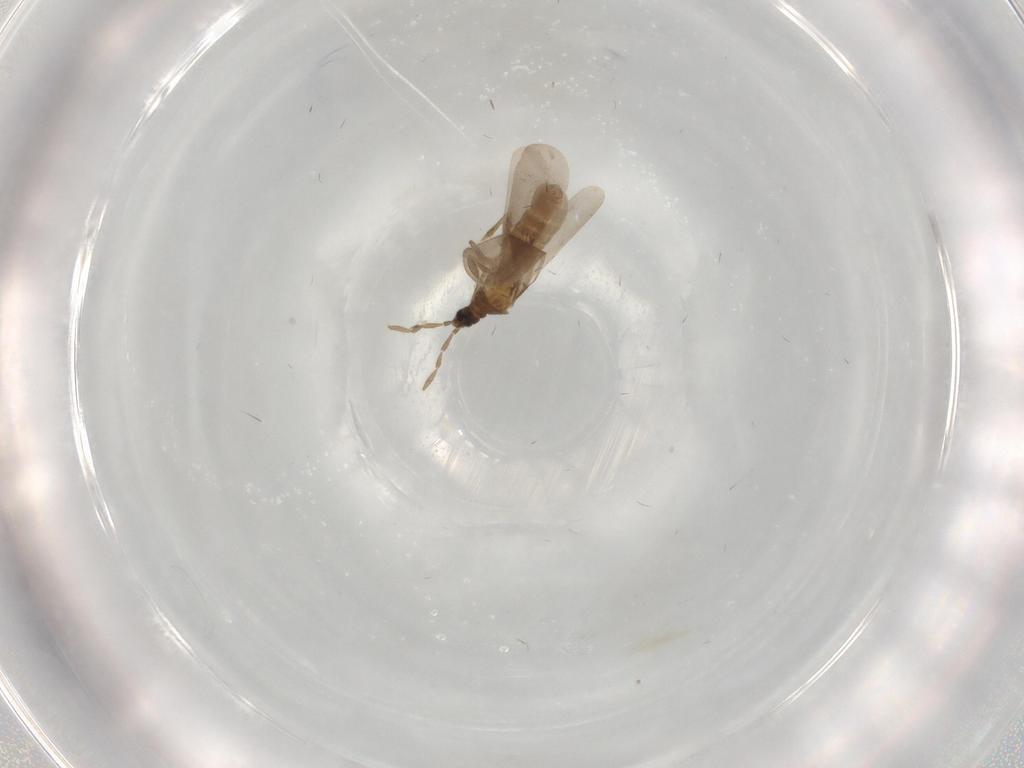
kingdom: Animalia
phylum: Arthropoda
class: Insecta
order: Hemiptera
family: Enicocephalidae
